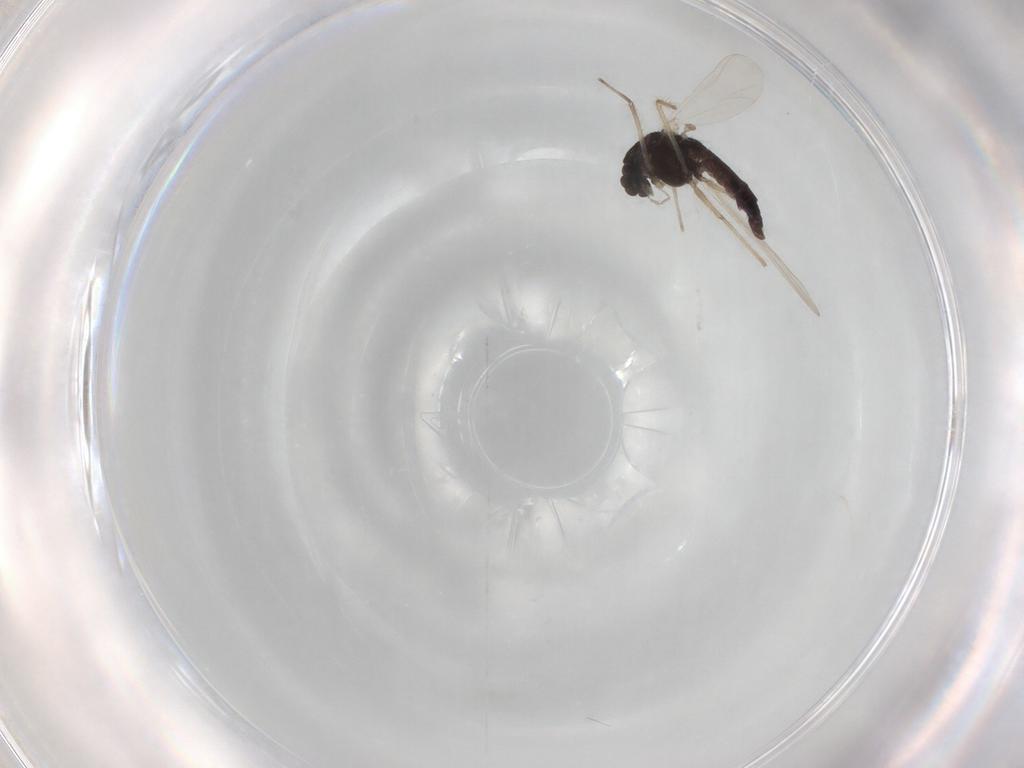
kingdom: Animalia
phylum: Arthropoda
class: Insecta
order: Diptera
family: Chironomidae
